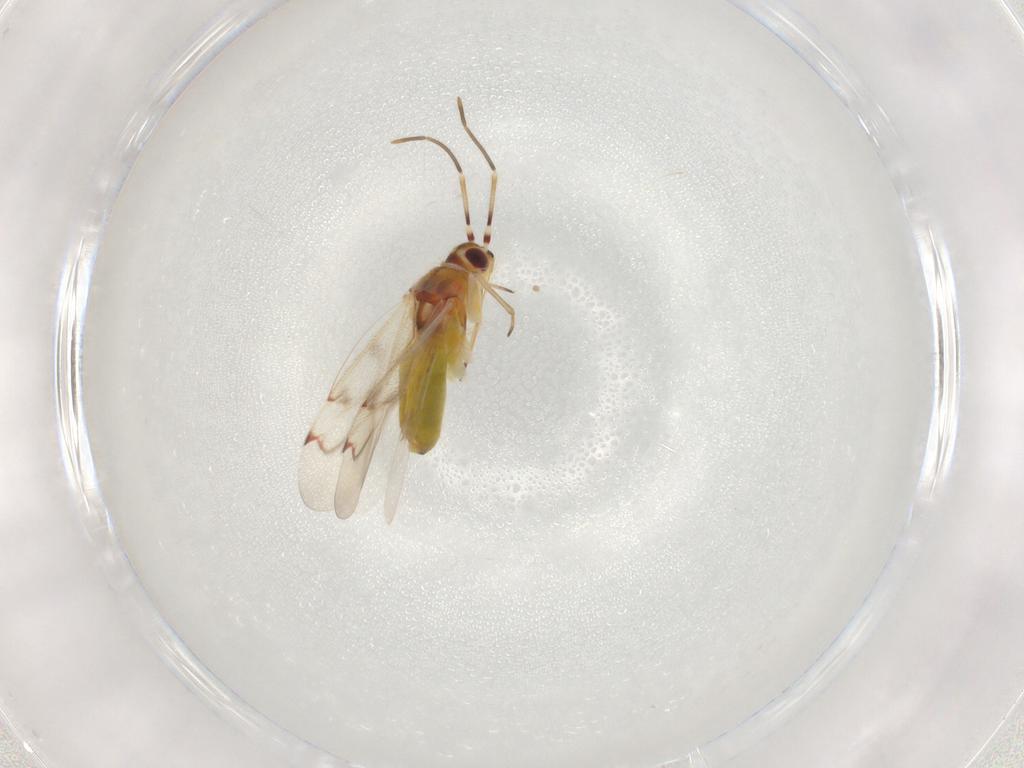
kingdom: Animalia
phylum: Arthropoda
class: Insecta
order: Hemiptera
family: Miridae
